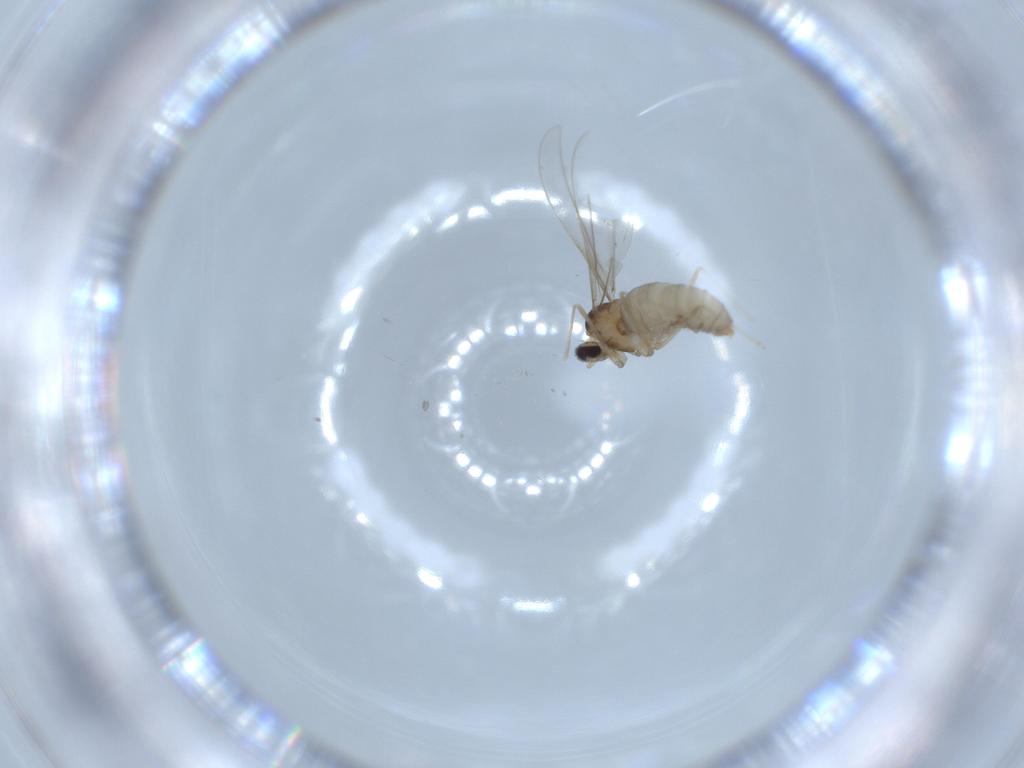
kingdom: Animalia
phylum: Arthropoda
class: Insecta
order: Diptera
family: Cecidomyiidae
